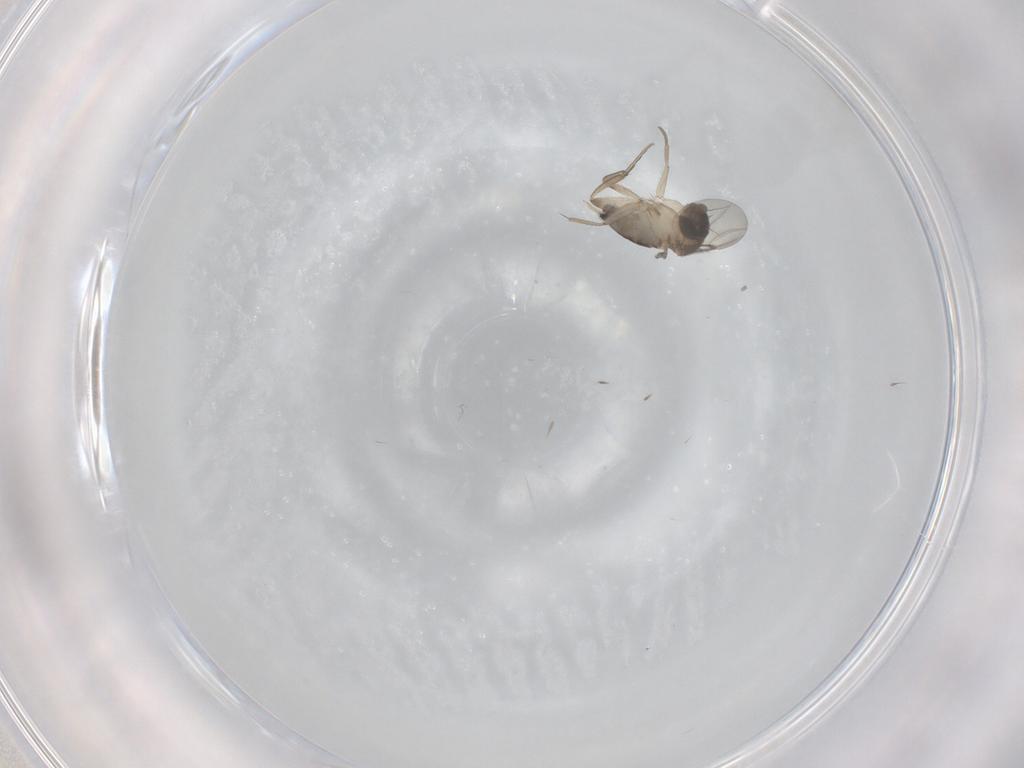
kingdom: Animalia
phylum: Arthropoda
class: Insecta
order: Diptera
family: Phoridae
